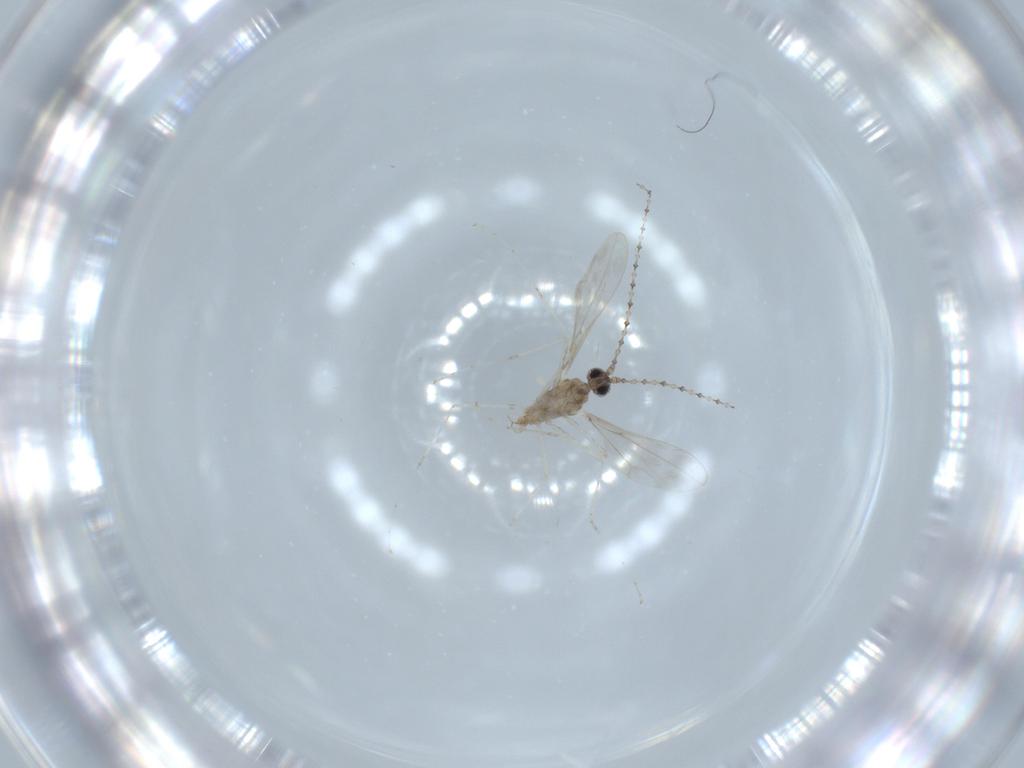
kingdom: Animalia
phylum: Arthropoda
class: Insecta
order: Diptera
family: Cecidomyiidae
